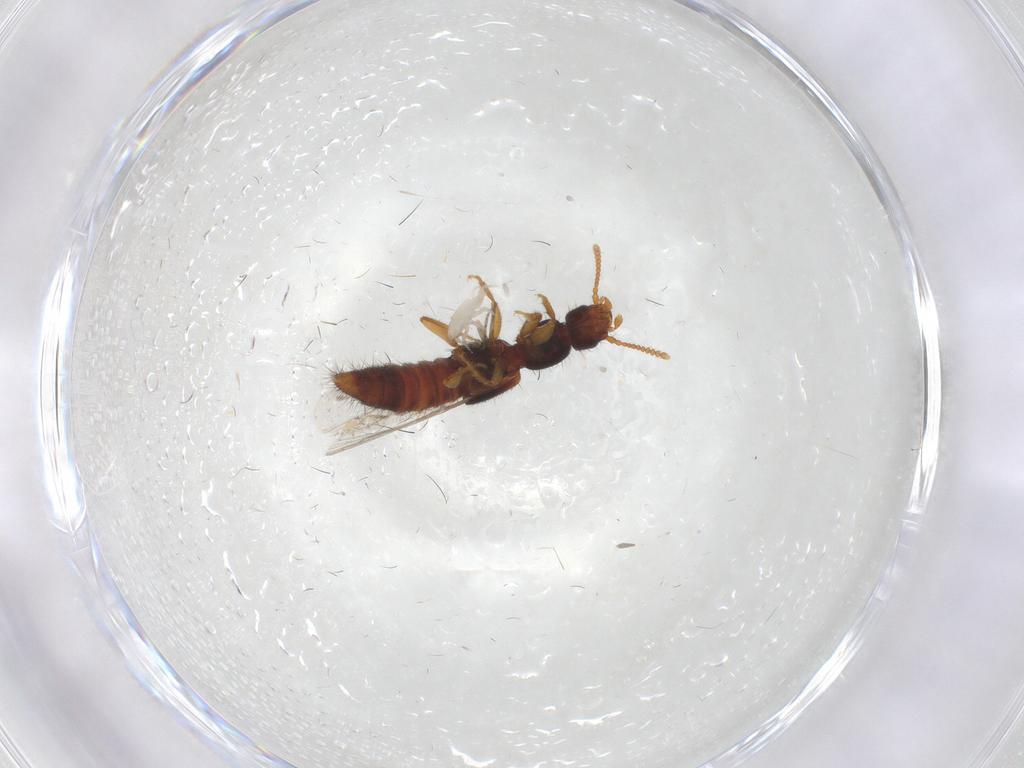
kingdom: Animalia
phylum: Arthropoda
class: Insecta
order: Coleoptera
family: Staphylinidae
